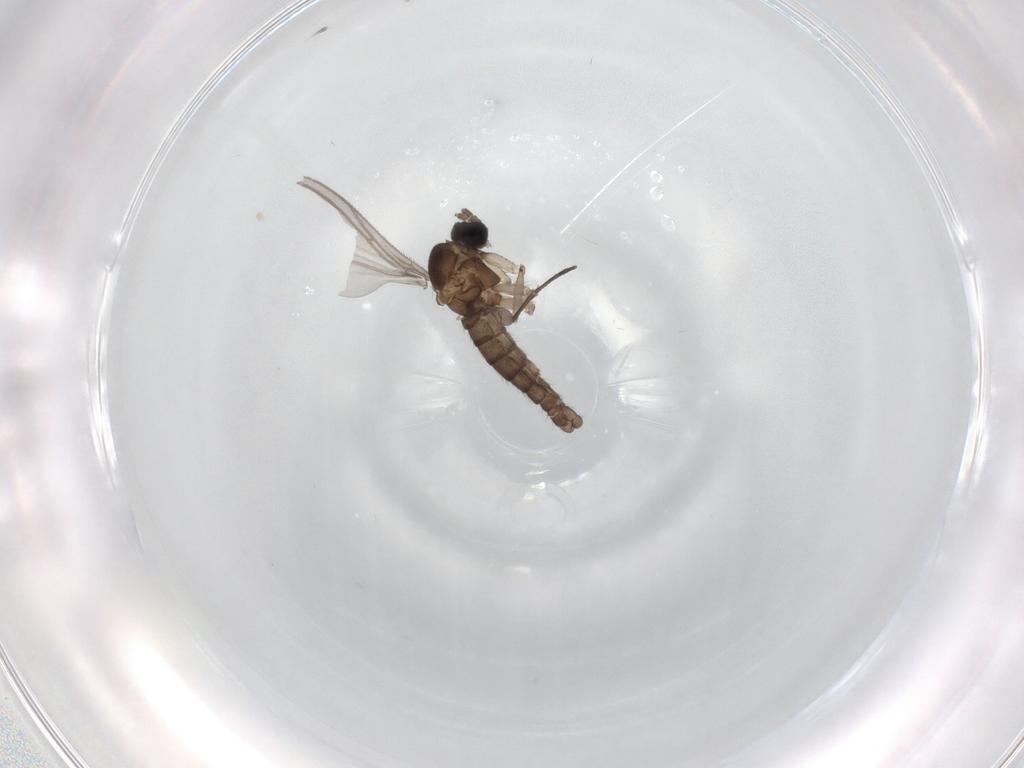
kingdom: Animalia
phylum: Arthropoda
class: Insecta
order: Diptera
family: Sciaridae
